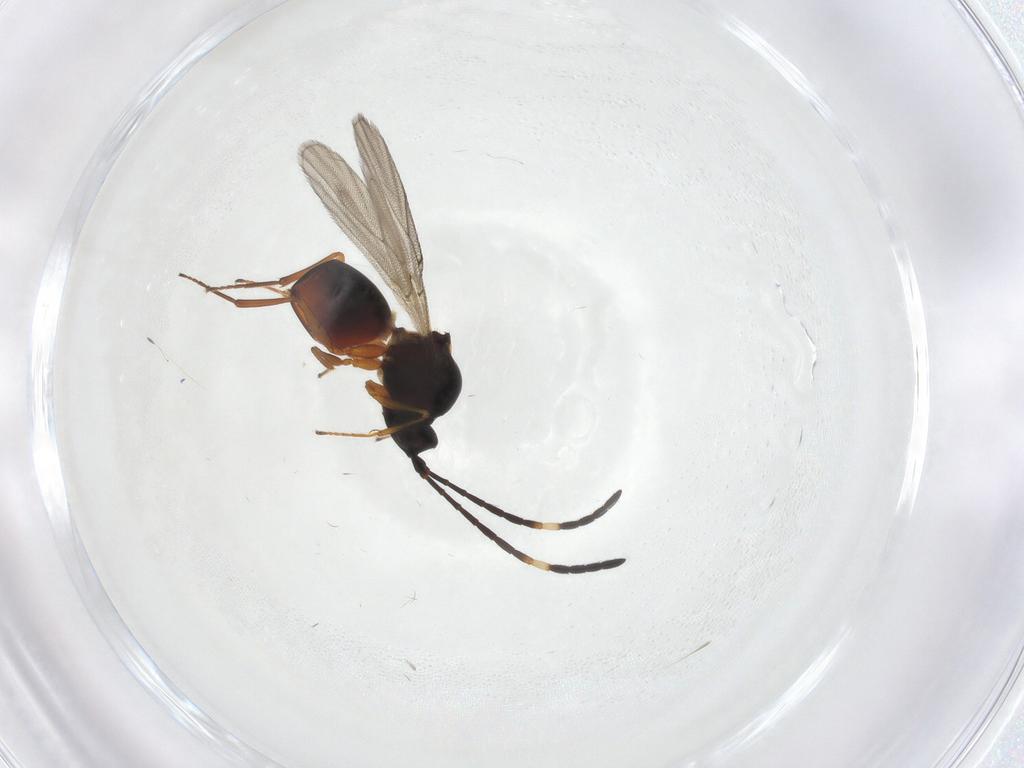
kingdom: Animalia
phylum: Arthropoda
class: Insecta
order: Hymenoptera
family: Figitidae
